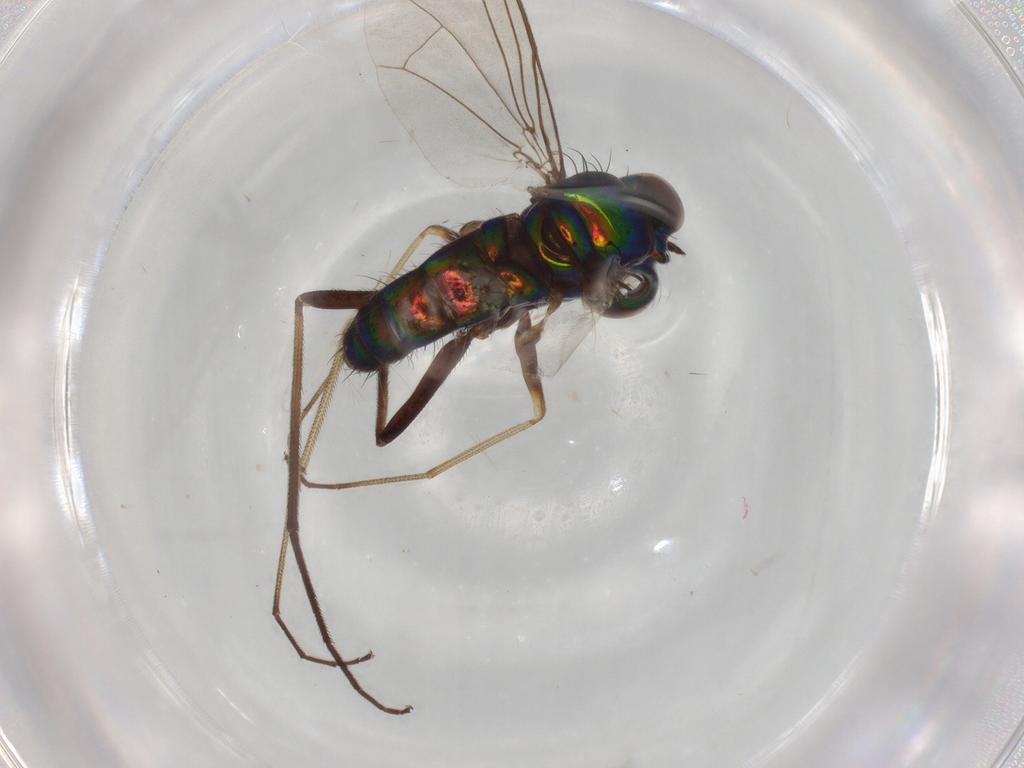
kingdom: Animalia
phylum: Arthropoda
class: Insecta
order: Diptera
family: Dolichopodidae
